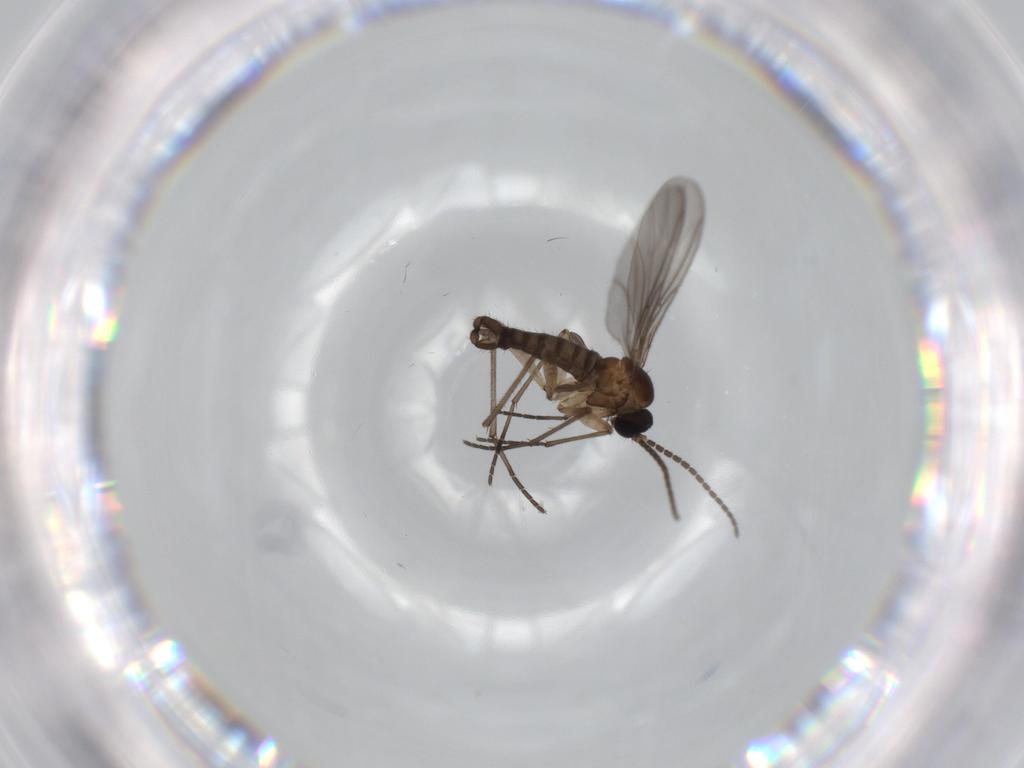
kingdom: Animalia
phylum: Arthropoda
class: Insecta
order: Diptera
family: Sciaridae
